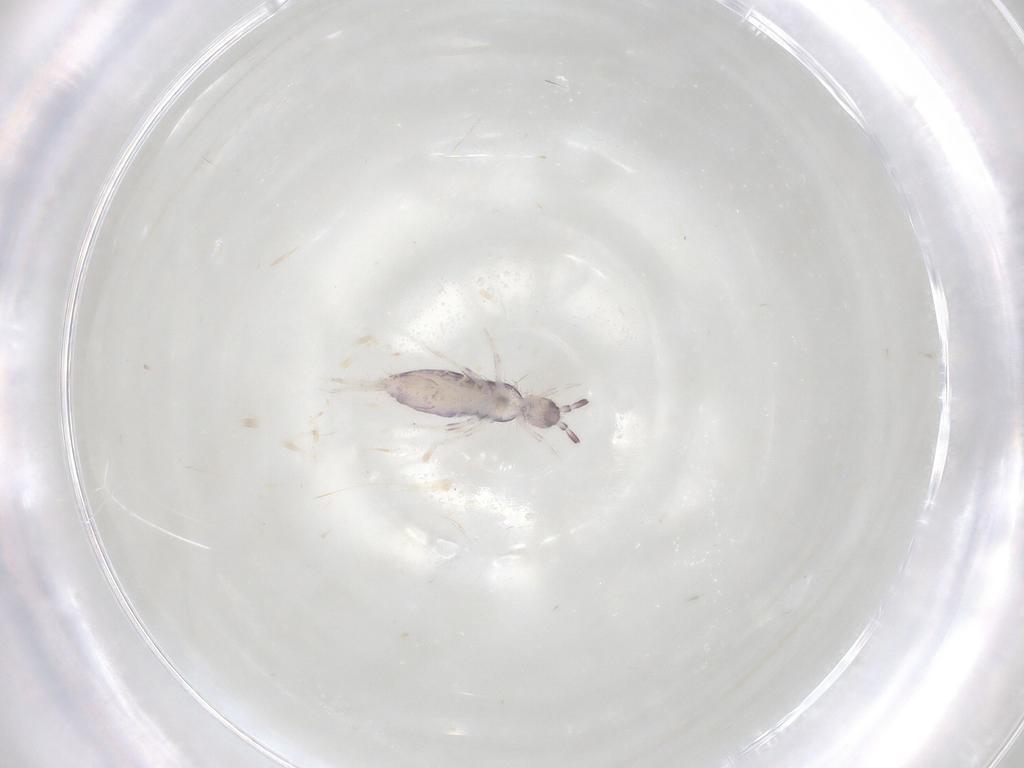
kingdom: Animalia
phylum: Arthropoda
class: Collembola
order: Poduromorpha
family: Hypogastruridae
